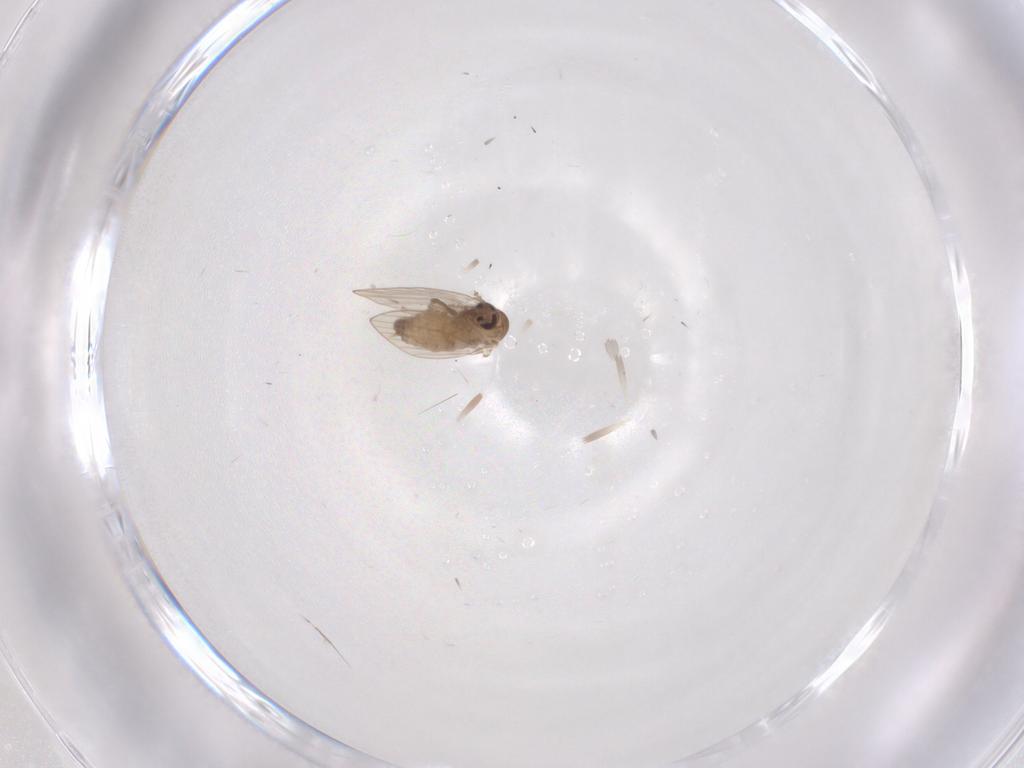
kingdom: Animalia
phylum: Arthropoda
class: Insecta
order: Diptera
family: Psychodidae
